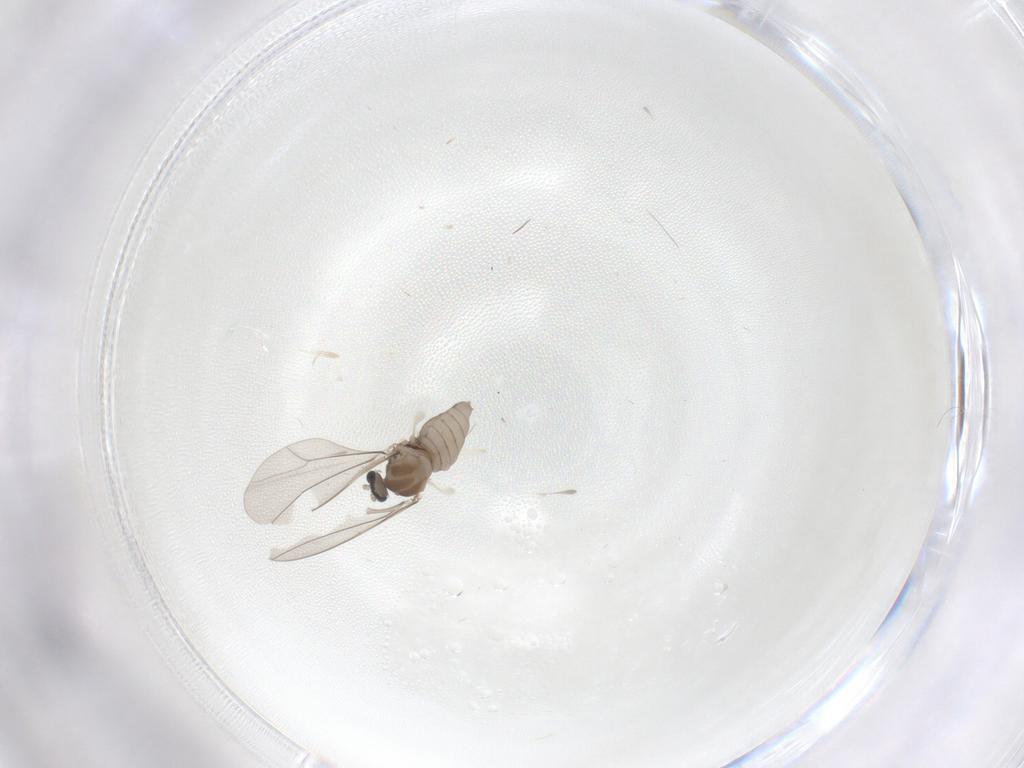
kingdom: Animalia
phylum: Arthropoda
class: Insecta
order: Diptera
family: Cecidomyiidae
